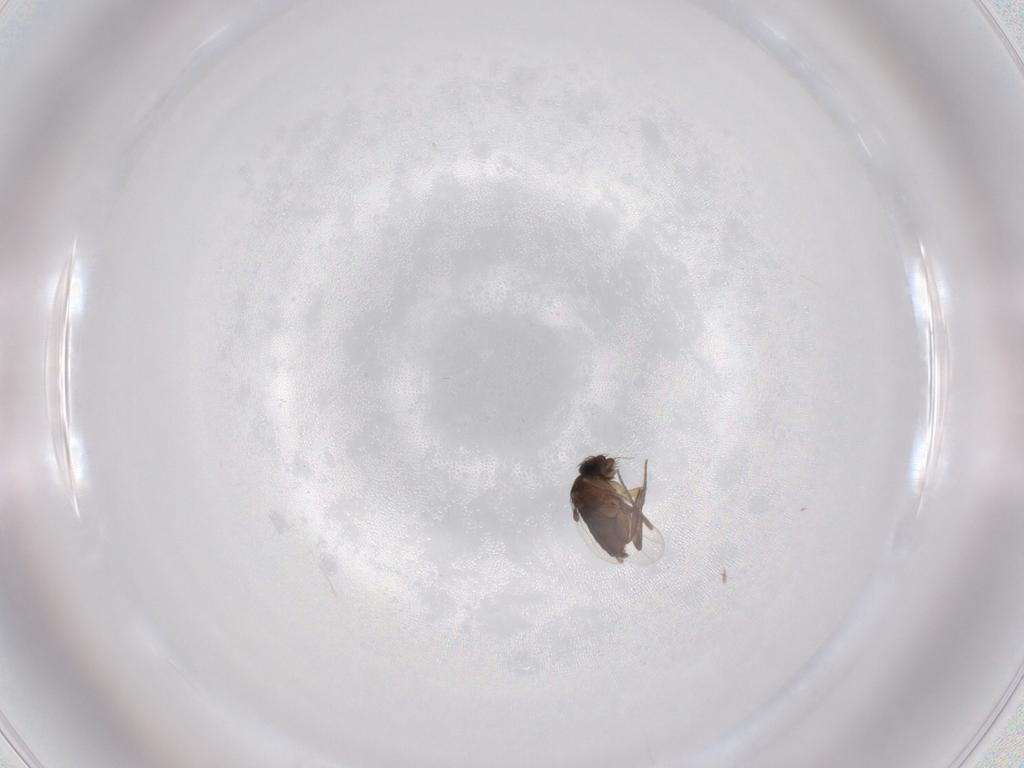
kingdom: Animalia
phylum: Arthropoda
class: Insecta
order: Diptera
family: Phoridae
